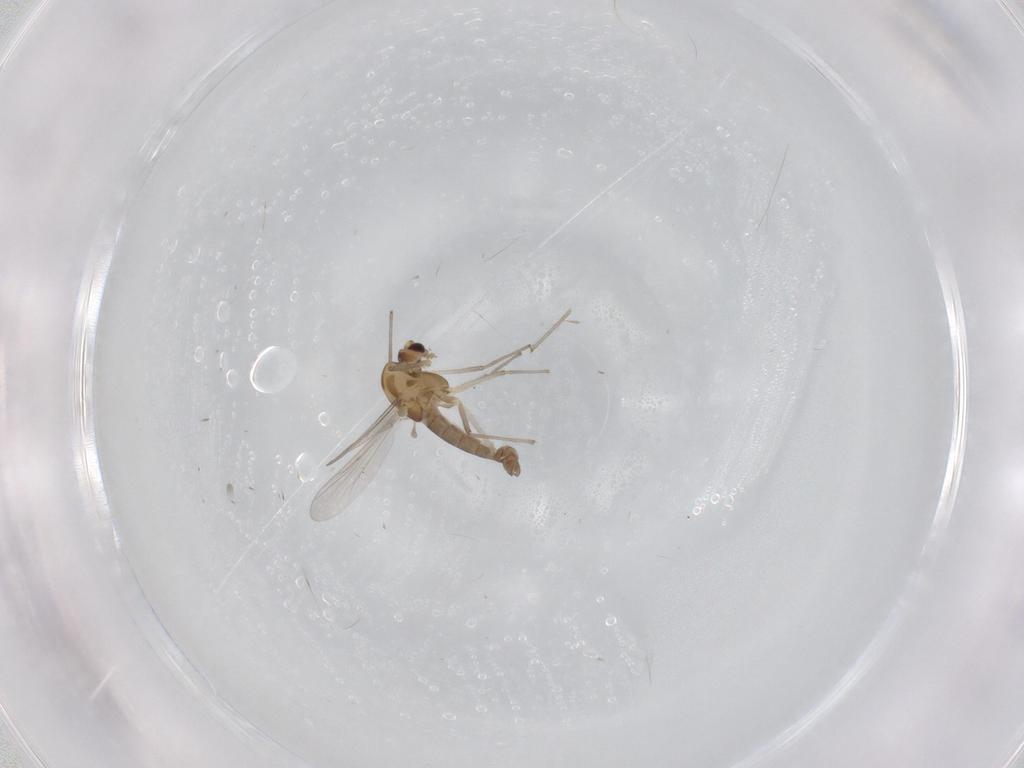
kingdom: Animalia
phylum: Arthropoda
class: Insecta
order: Diptera
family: Chironomidae
